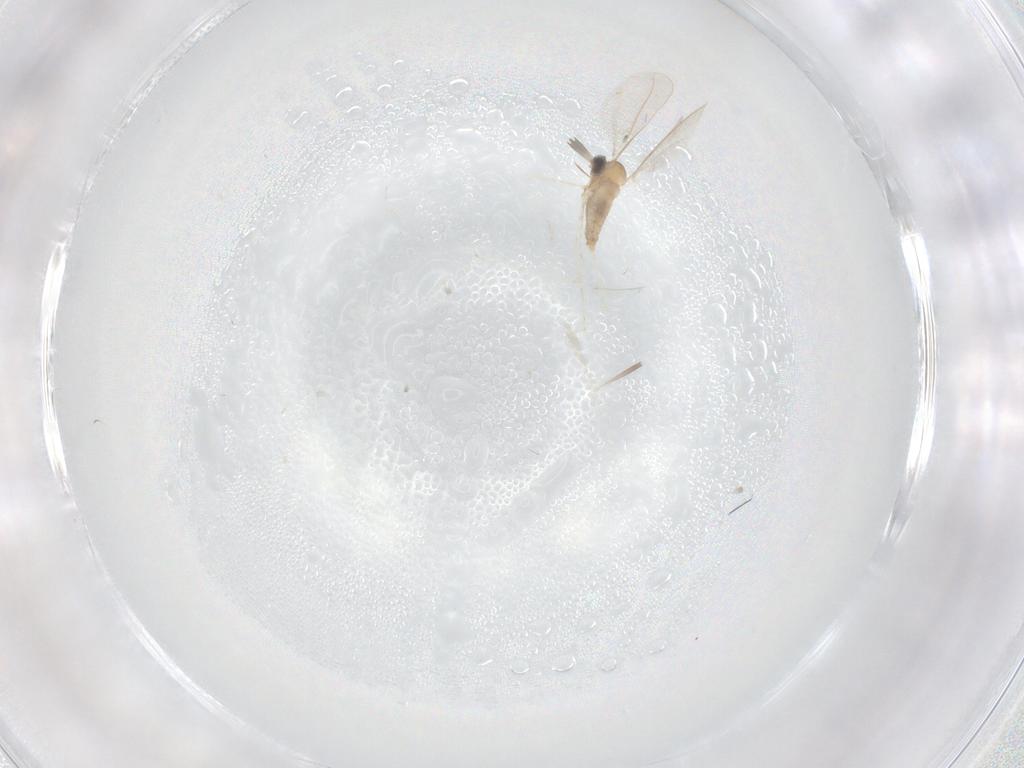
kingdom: Animalia
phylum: Arthropoda
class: Insecta
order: Diptera
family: Cecidomyiidae
